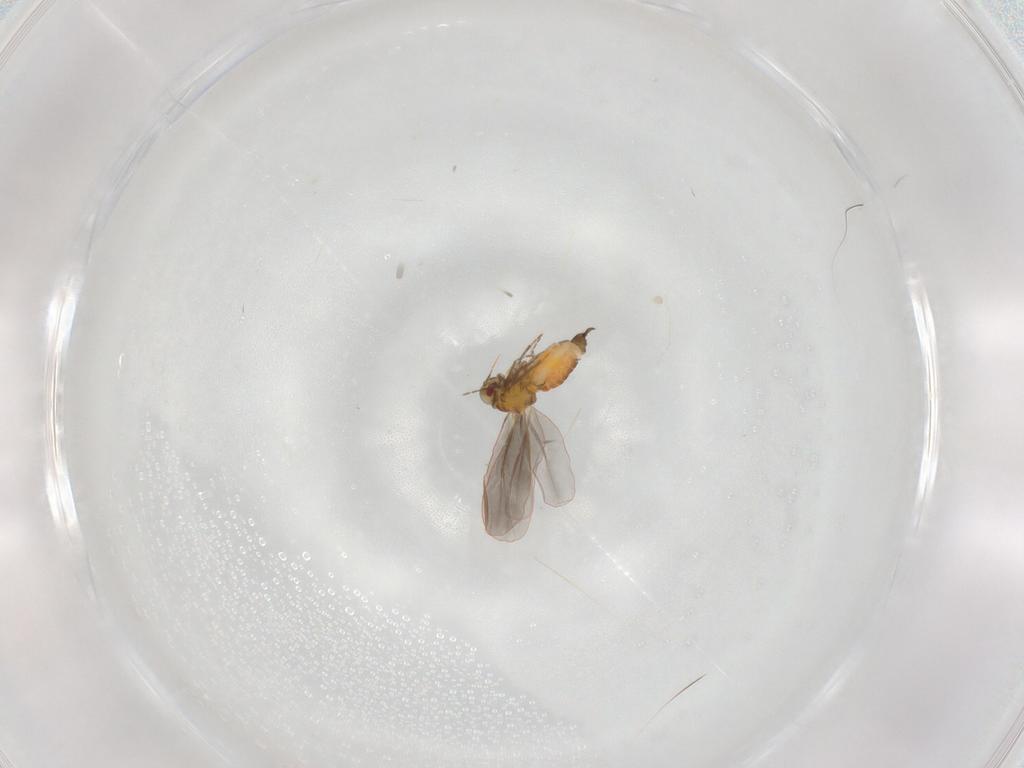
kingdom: Animalia
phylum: Arthropoda
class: Insecta
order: Hemiptera
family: Aleyrodidae
